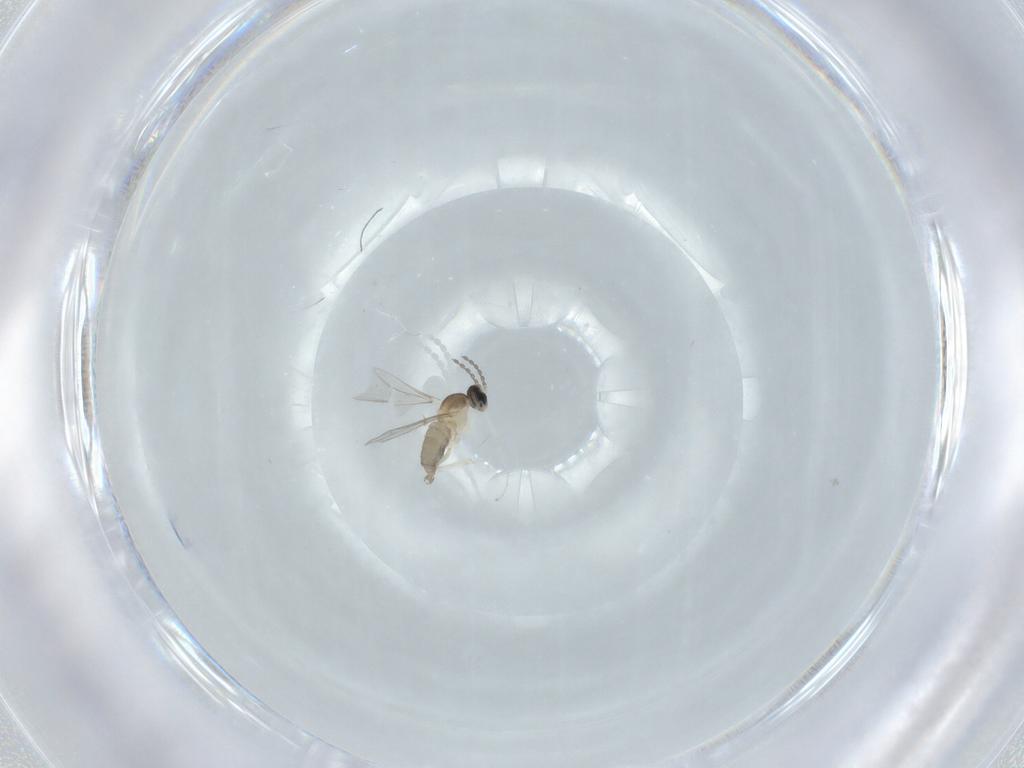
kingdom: Animalia
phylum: Arthropoda
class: Insecta
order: Diptera
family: Cecidomyiidae
